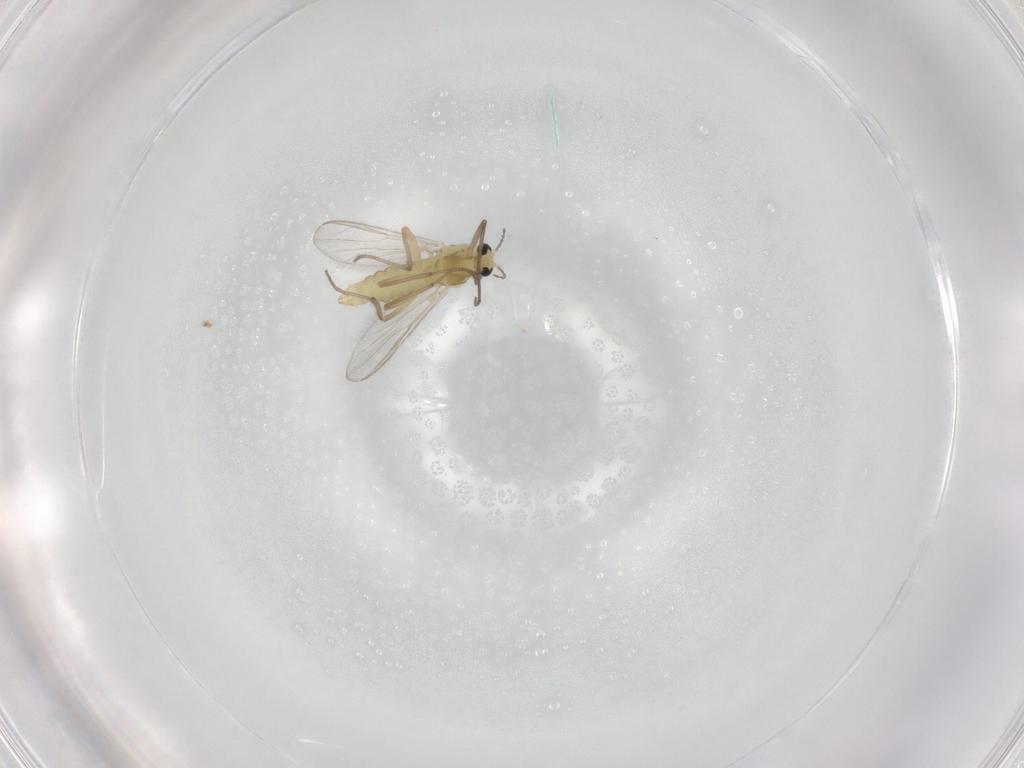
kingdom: Animalia
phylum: Arthropoda
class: Insecta
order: Diptera
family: Chironomidae
